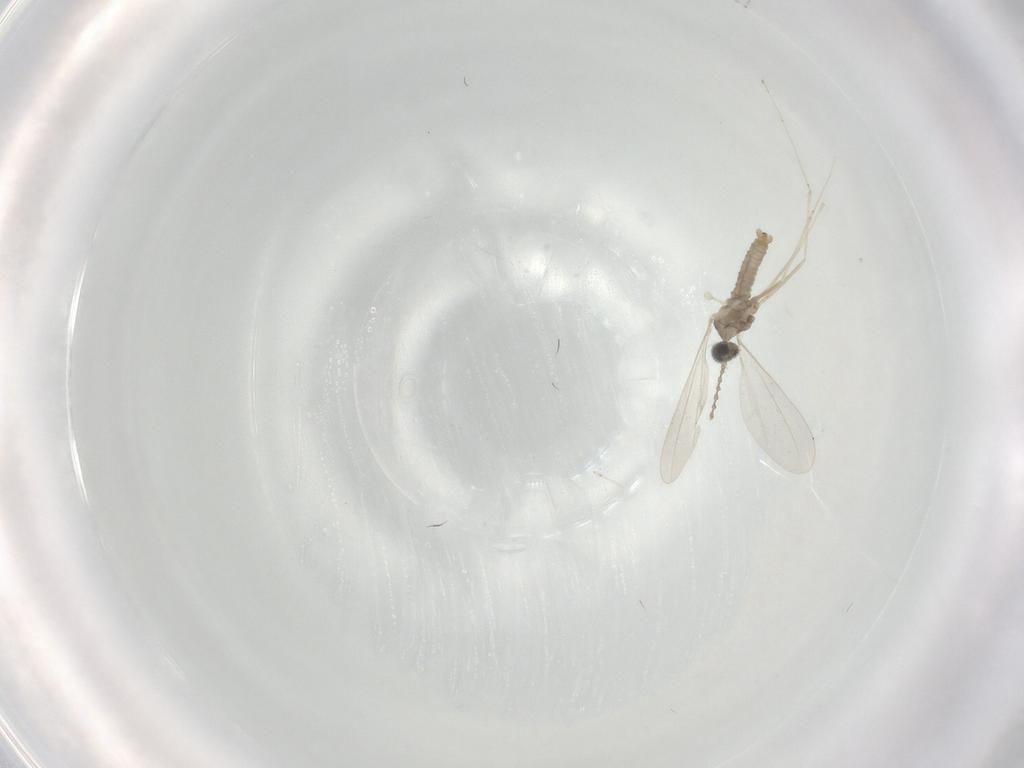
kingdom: Animalia
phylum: Arthropoda
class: Insecta
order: Diptera
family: Cecidomyiidae
